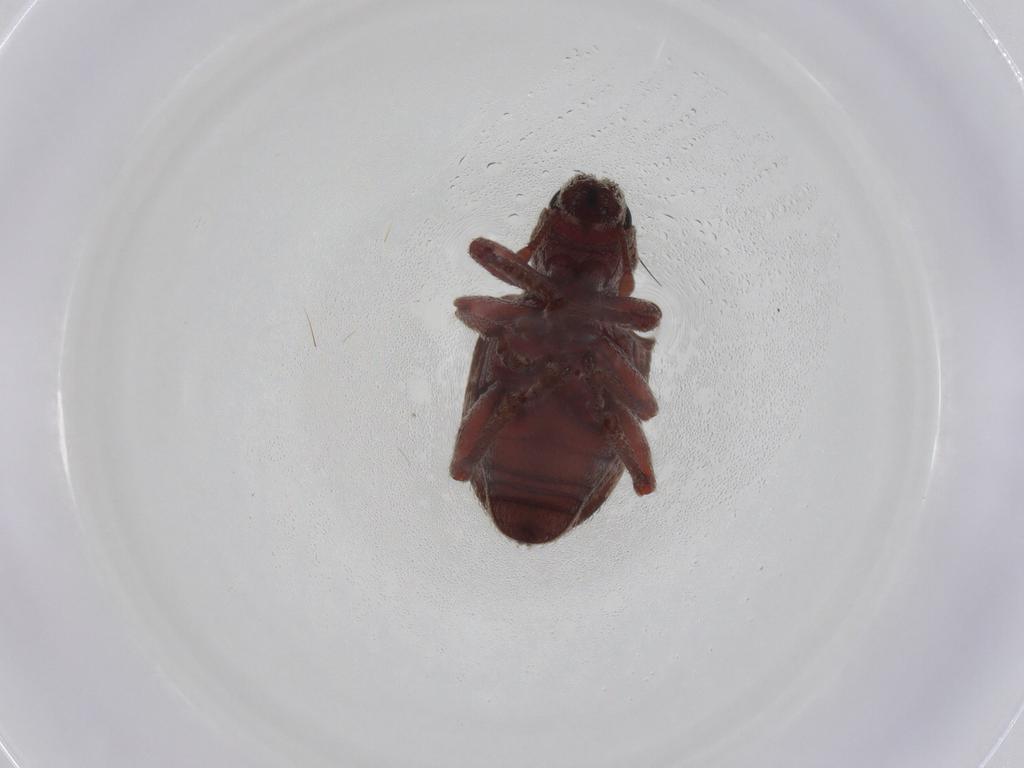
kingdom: Animalia
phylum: Arthropoda
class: Insecta
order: Coleoptera
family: Curculionidae
